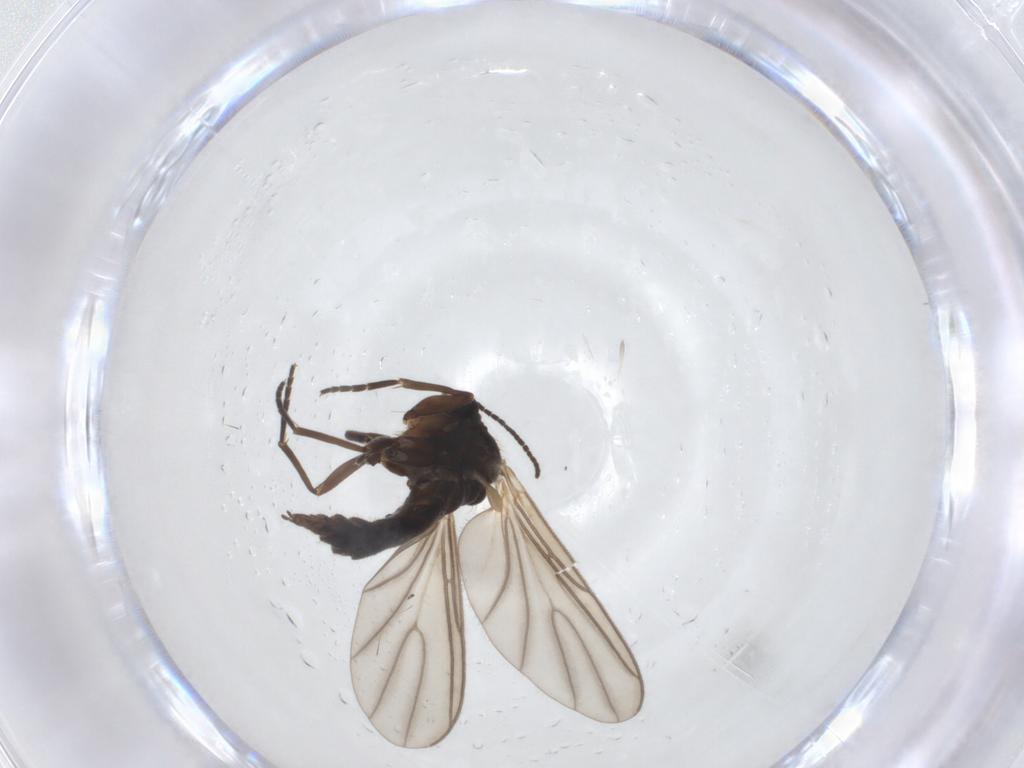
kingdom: Animalia
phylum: Arthropoda
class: Insecta
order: Diptera
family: Sciaridae
